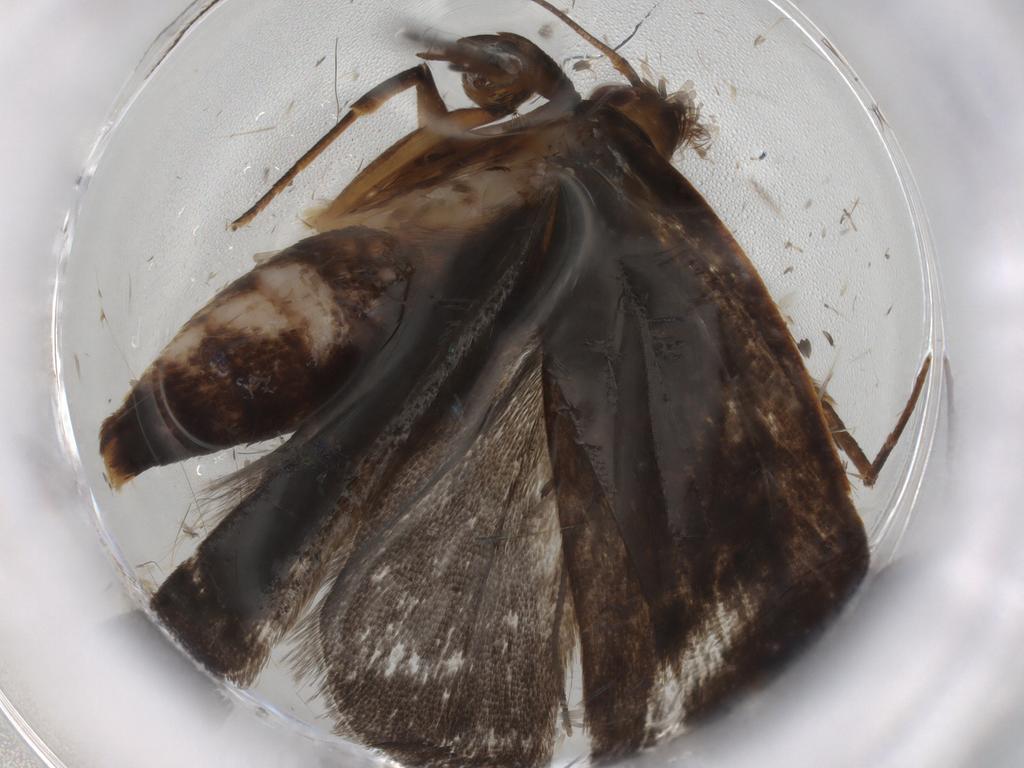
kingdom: Animalia
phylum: Arthropoda
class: Insecta
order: Lepidoptera
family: Gelechiidae
